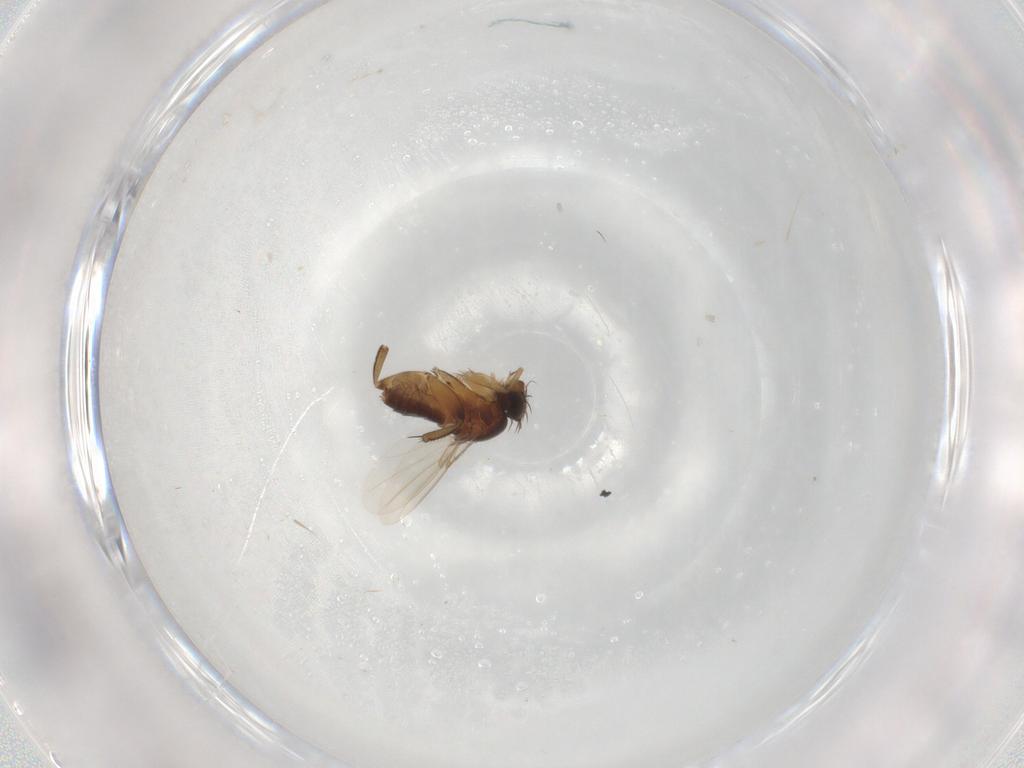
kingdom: Animalia
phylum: Arthropoda
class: Insecta
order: Diptera
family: Phoridae
